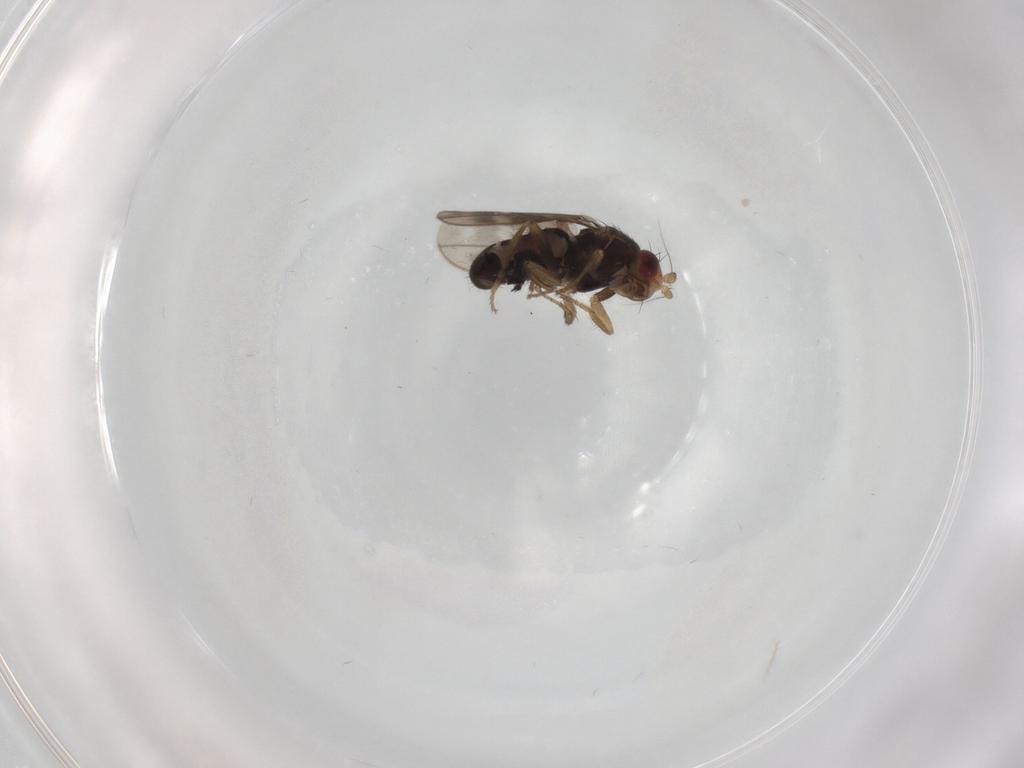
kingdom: Animalia
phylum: Arthropoda
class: Insecta
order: Diptera
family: Sphaeroceridae
